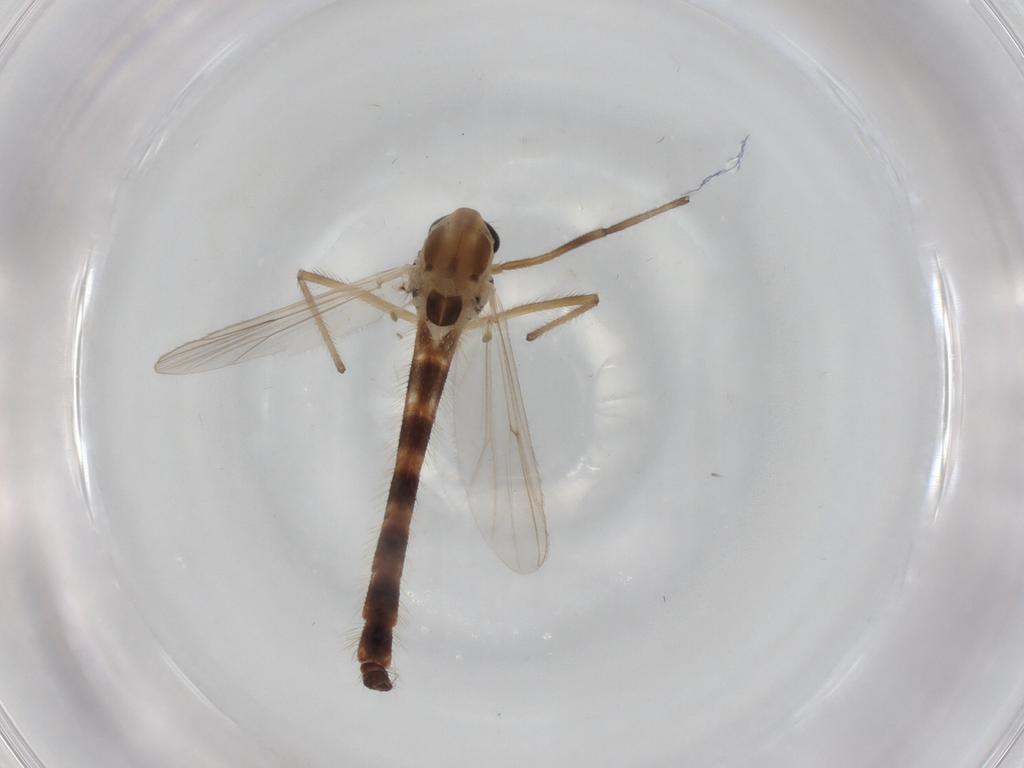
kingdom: Animalia
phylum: Arthropoda
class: Insecta
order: Diptera
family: Chironomidae
